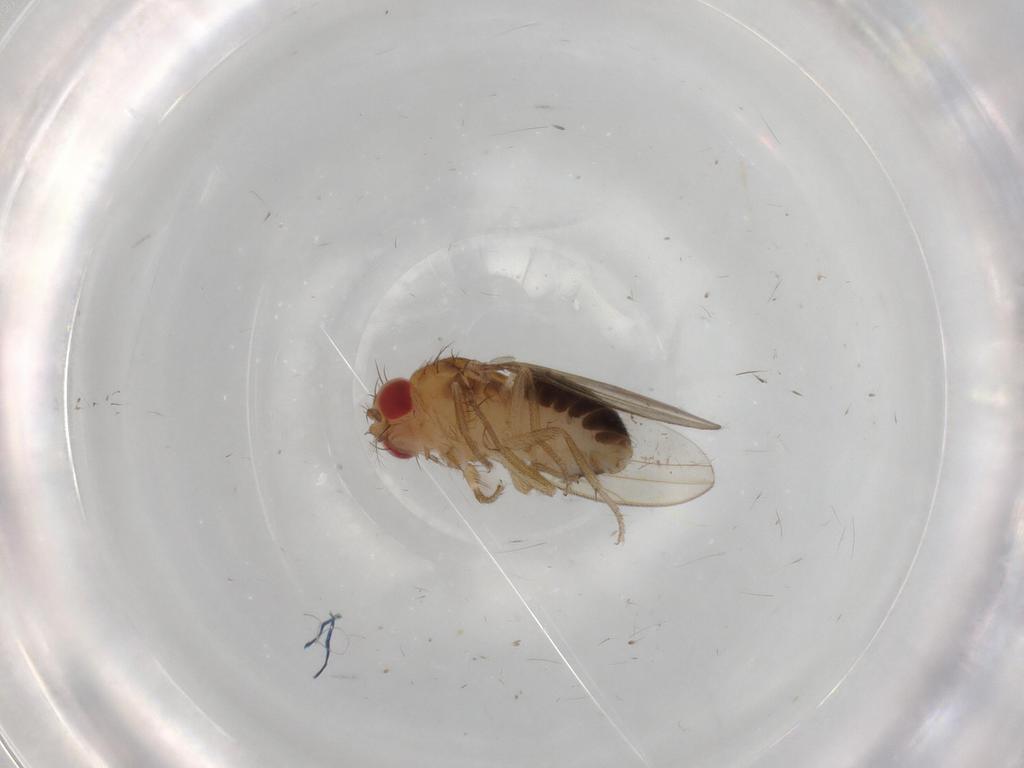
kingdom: Animalia
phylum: Arthropoda
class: Insecta
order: Diptera
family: Drosophilidae
